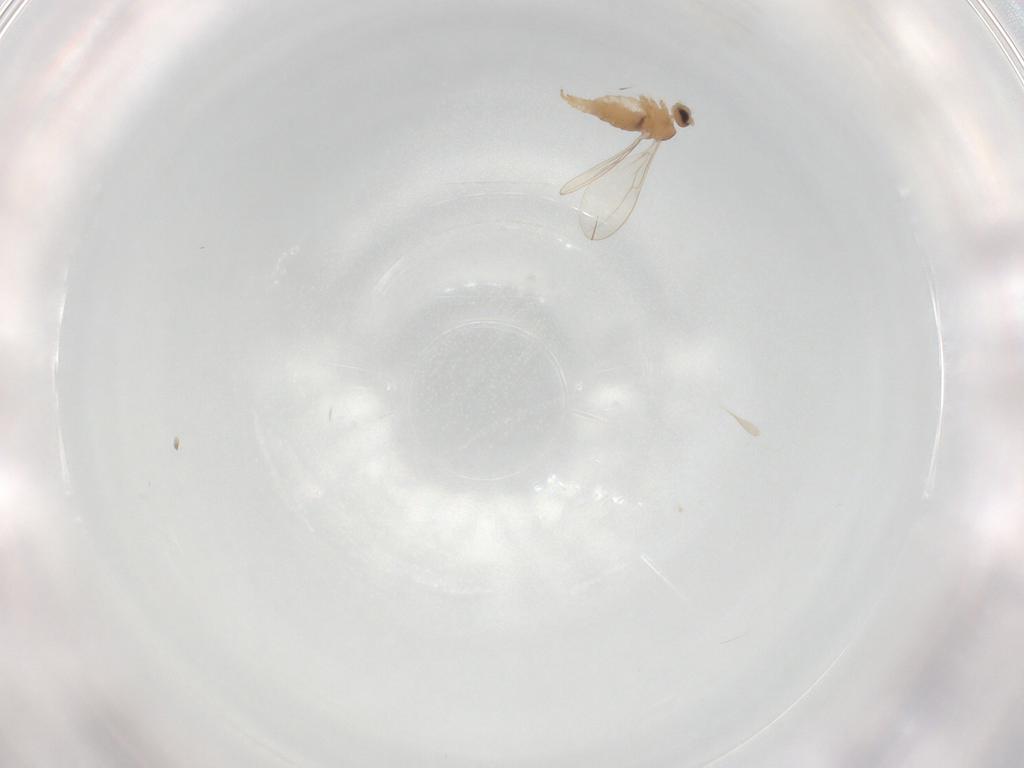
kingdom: Animalia
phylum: Arthropoda
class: Insecta
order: Diptera
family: Cecidomyiidae
